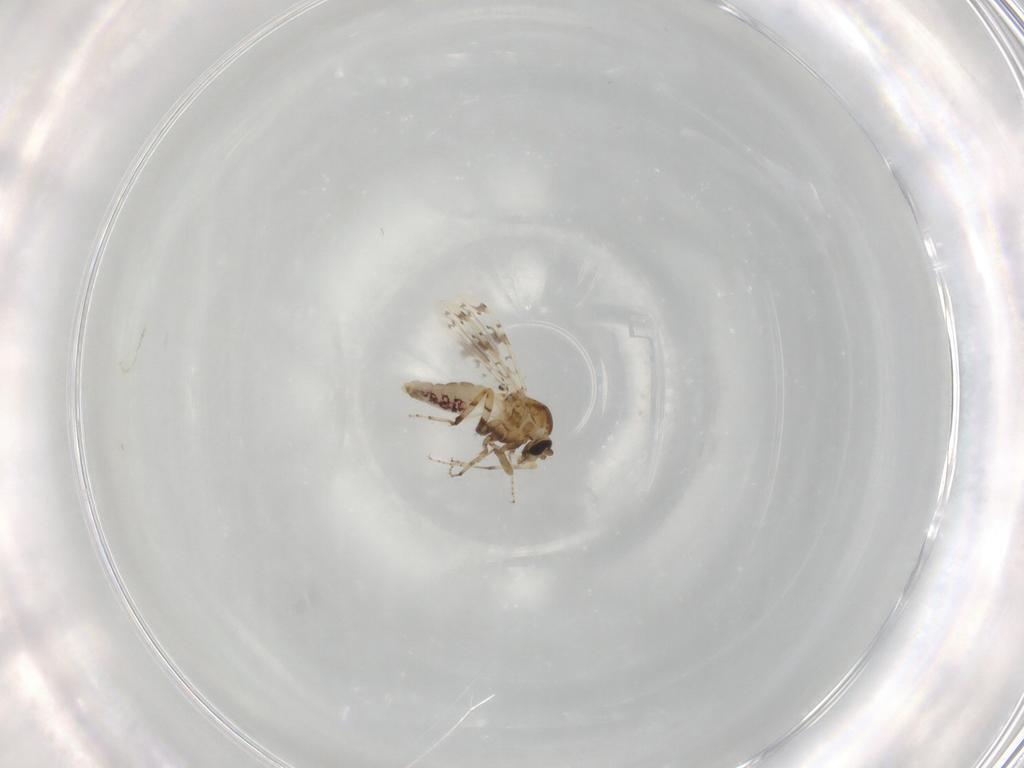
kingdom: Animalia
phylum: Arthropoda
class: Insecta
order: Diptera
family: Ceratopogonidae
